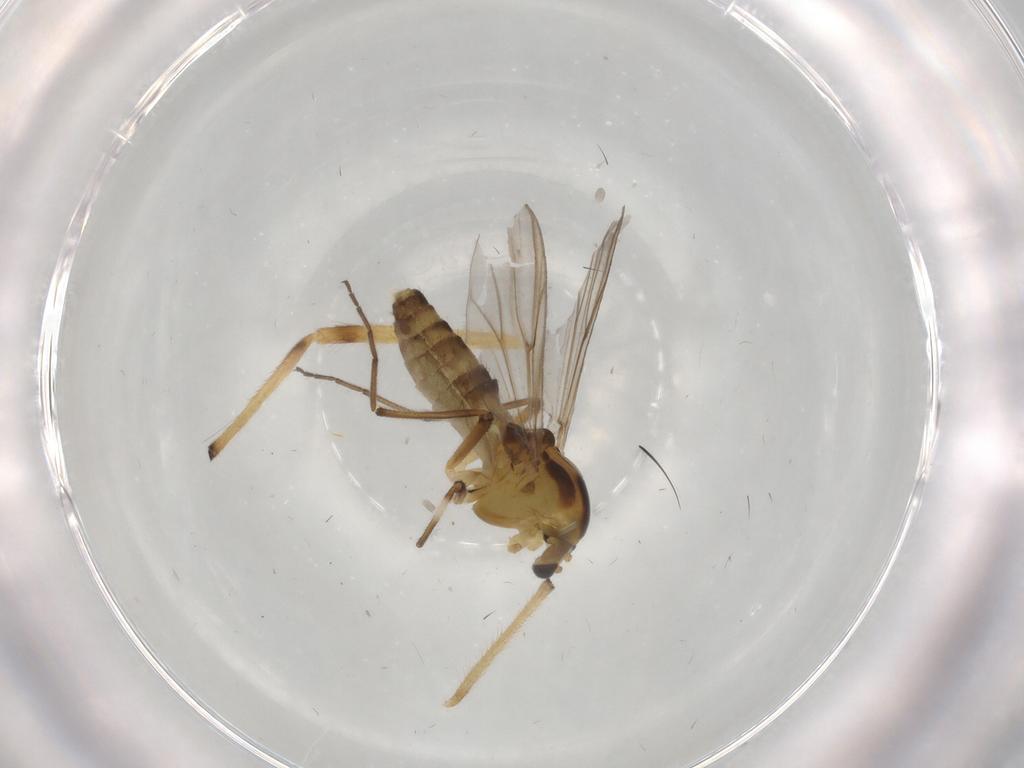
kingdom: Animalia
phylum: Arthropoda
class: Insecta
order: Diptera
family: Chironomidae
